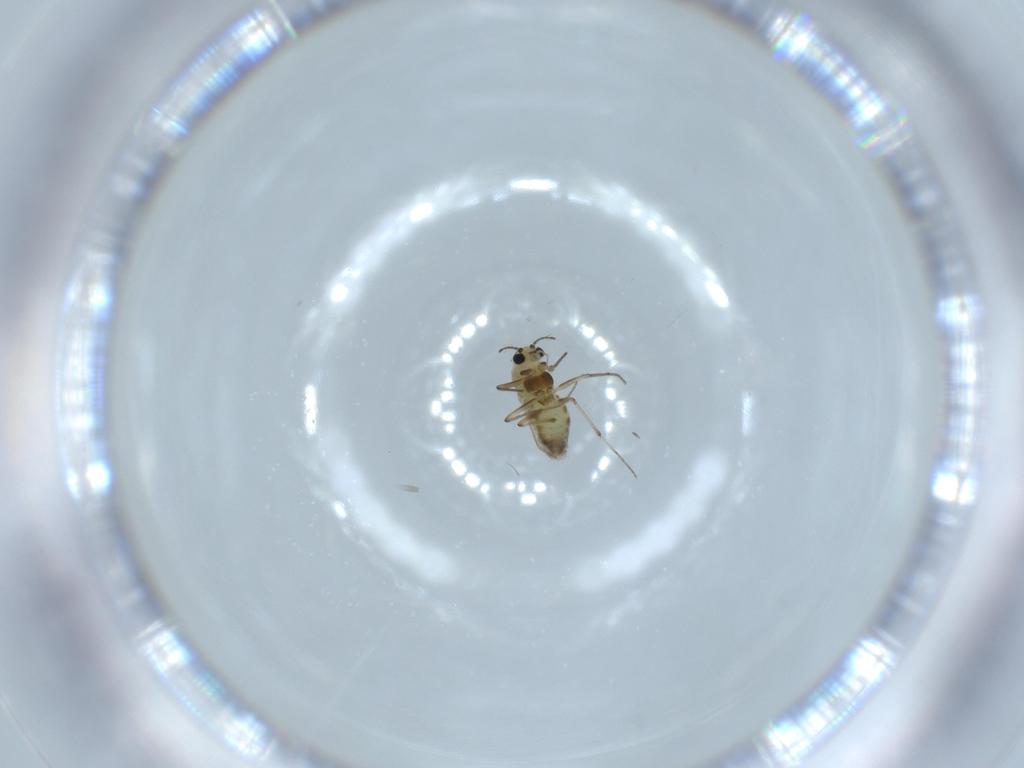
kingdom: Animalia
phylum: Arthropoda
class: Insecta
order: Diptera
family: Chironomidae
